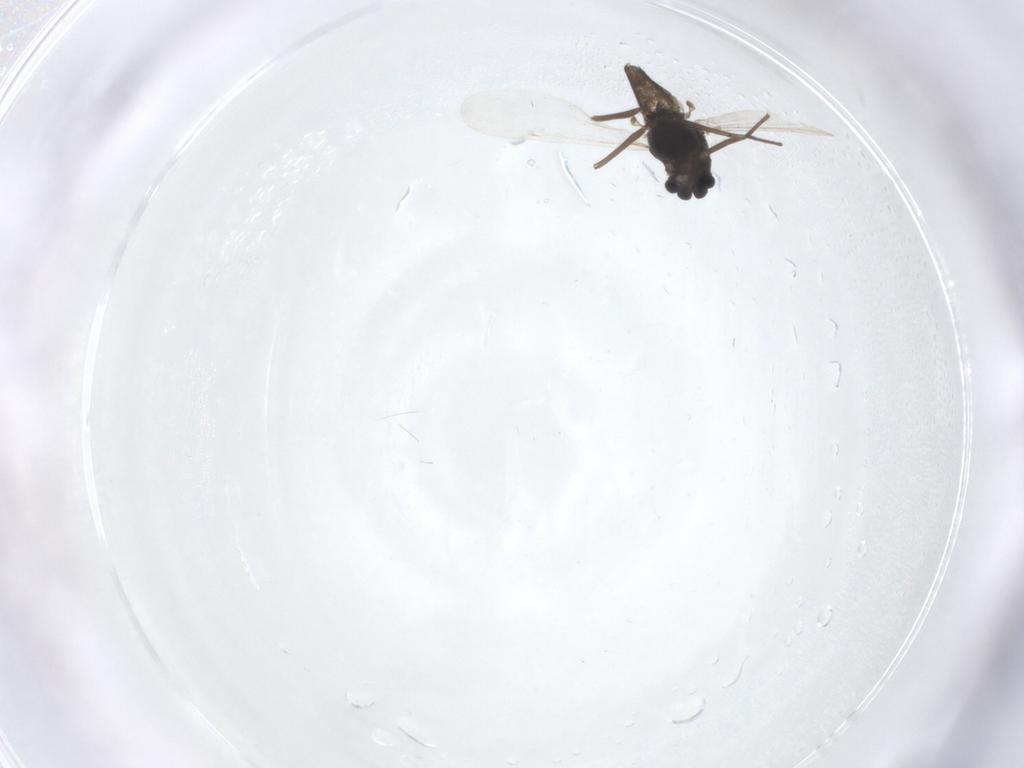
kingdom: Animalia
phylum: Arthropoda
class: Insecta
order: Diptera
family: Chironomidae
